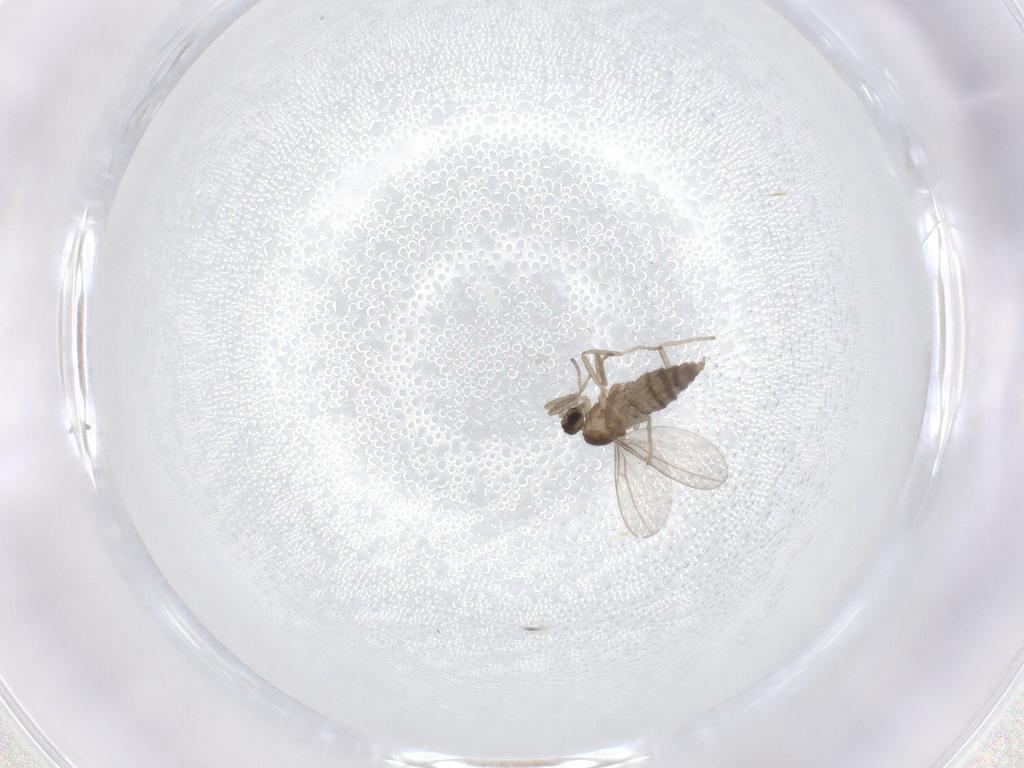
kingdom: Animalia
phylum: Arthropoda
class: Insecta
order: Diptera
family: Cecidomyiidae
